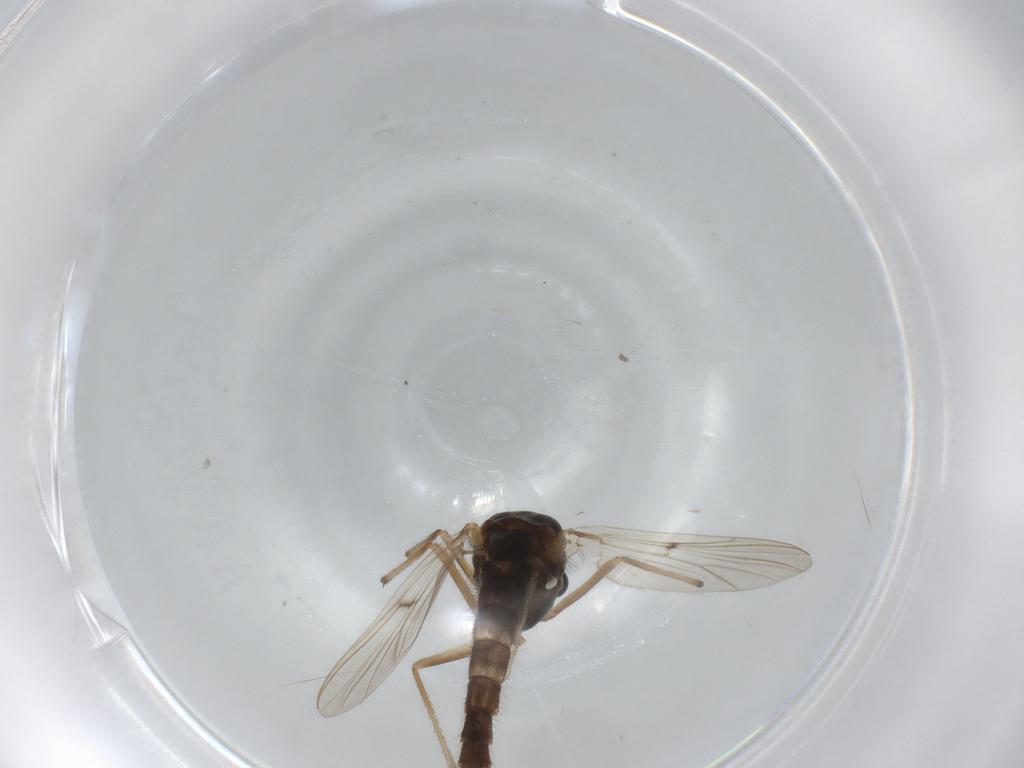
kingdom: Animalia
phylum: Arthropoda
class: Insecta
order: Diptera
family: Chironomidae
